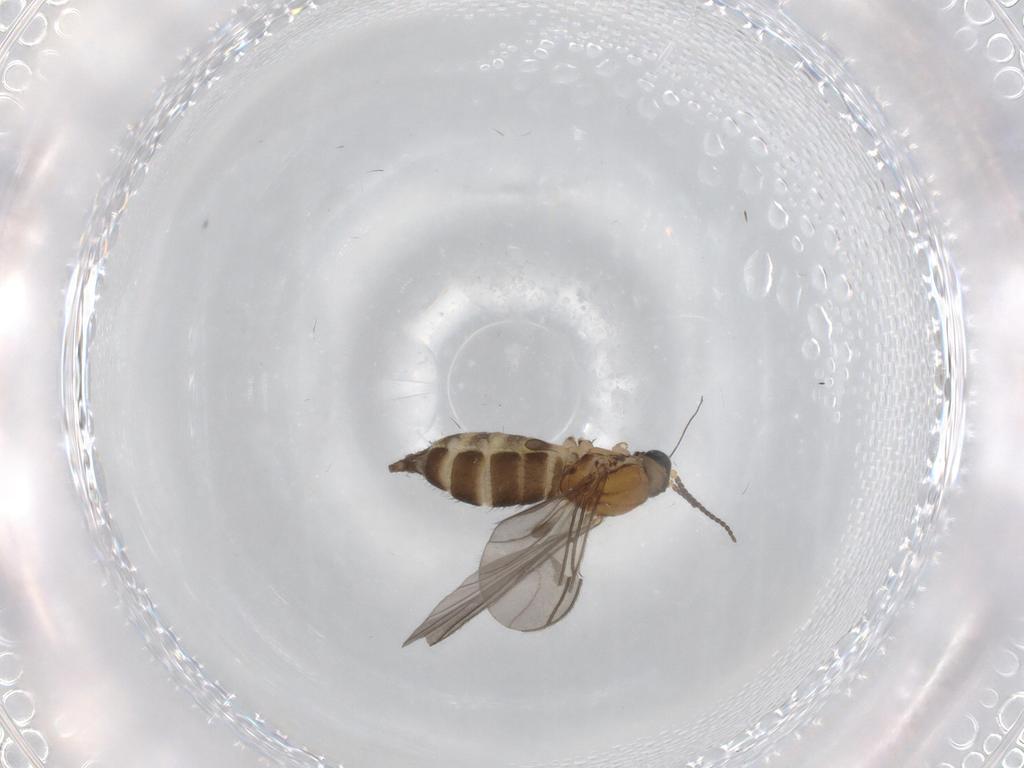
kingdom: Animalia
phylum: Arthropoda
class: Insecta
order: Diptera
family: Sciaridae
